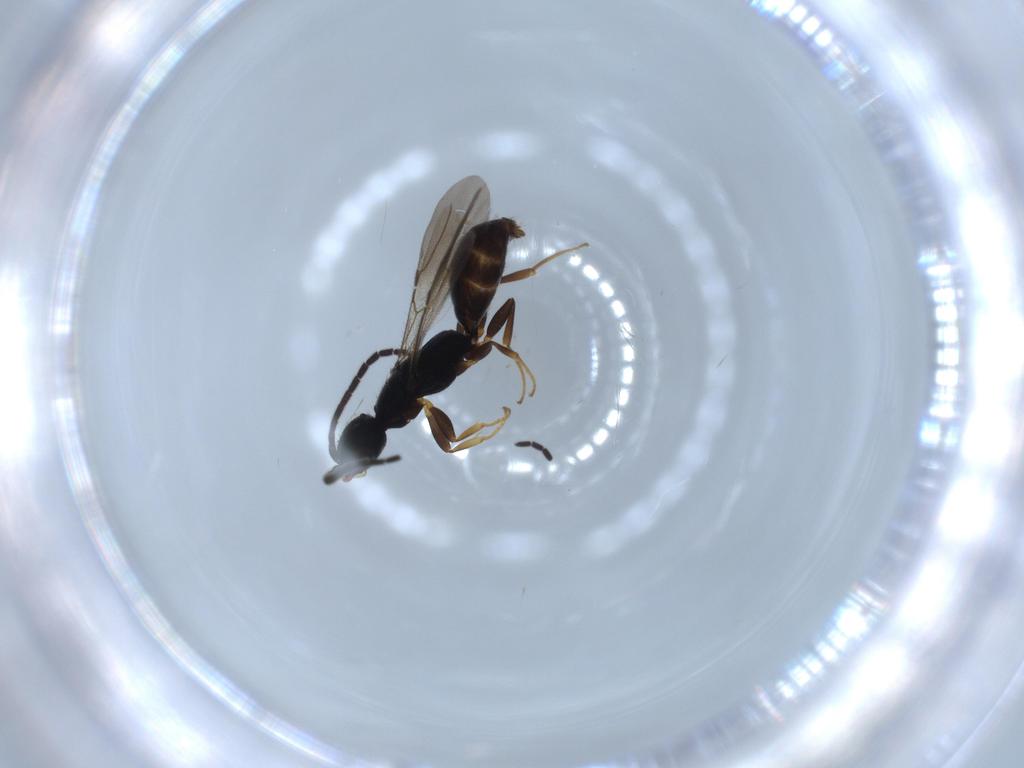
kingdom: Animalia
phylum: Arthropoda
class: Insecta
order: Hymenoptera
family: Bethylidae
